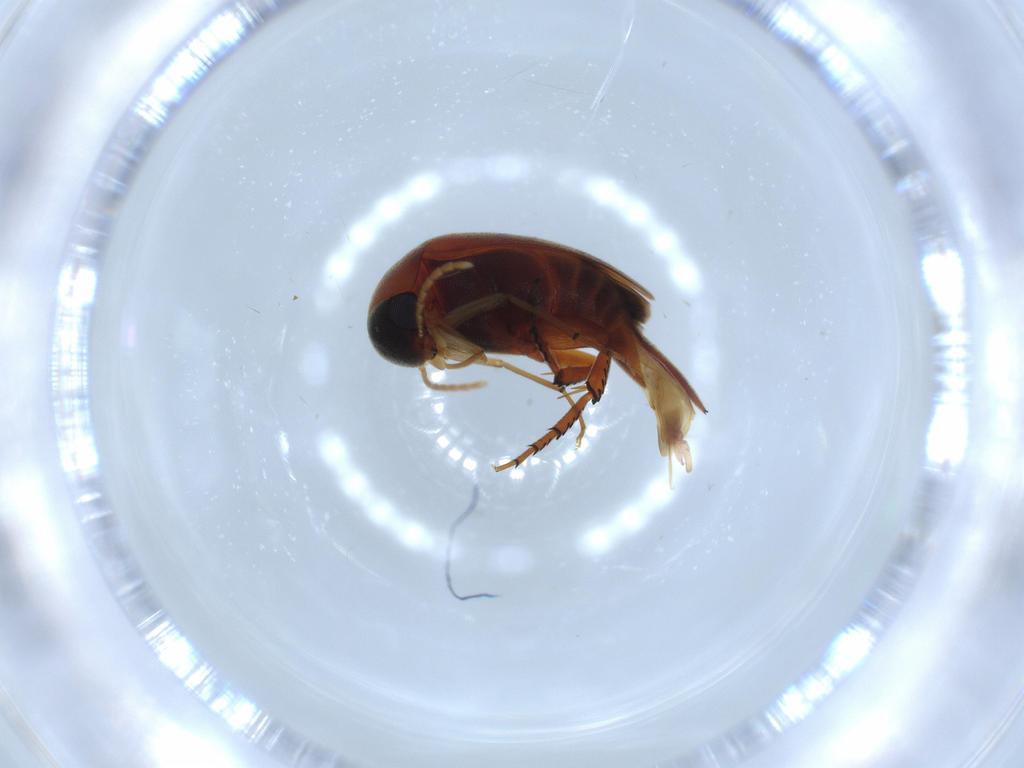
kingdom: Animalia
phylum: Arthropoda
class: Insecta
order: Coleoptera
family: Mordellidae
